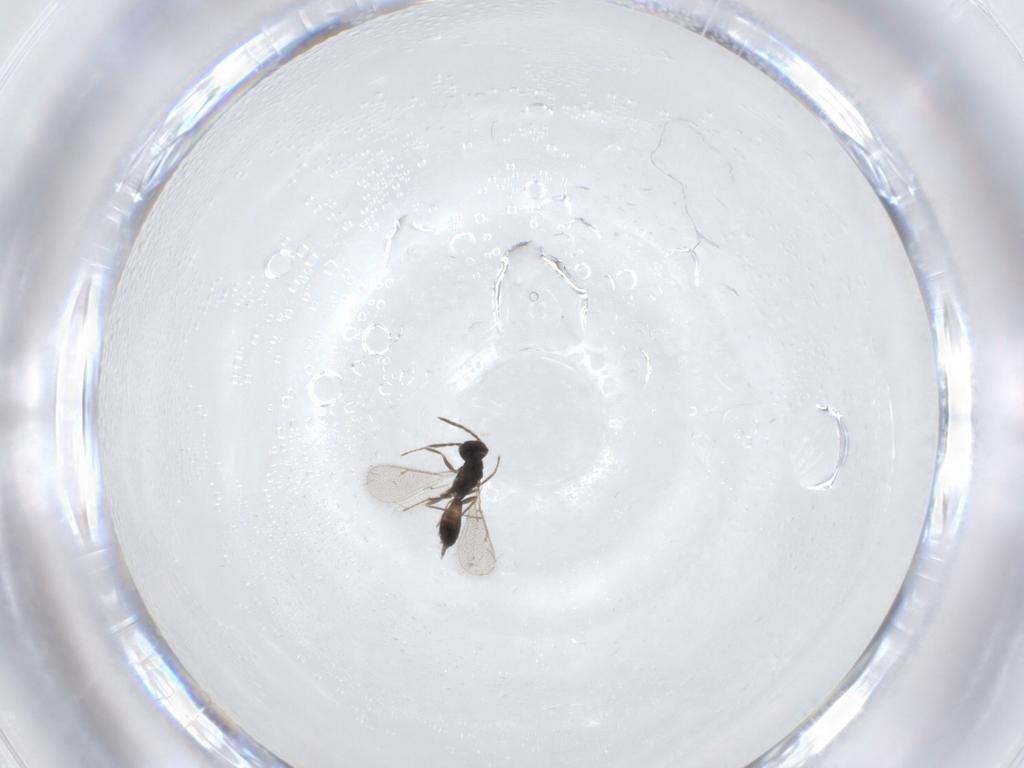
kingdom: Animalia
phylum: Arthropoda
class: Insecta
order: Hymenoptera
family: Eulophidae
